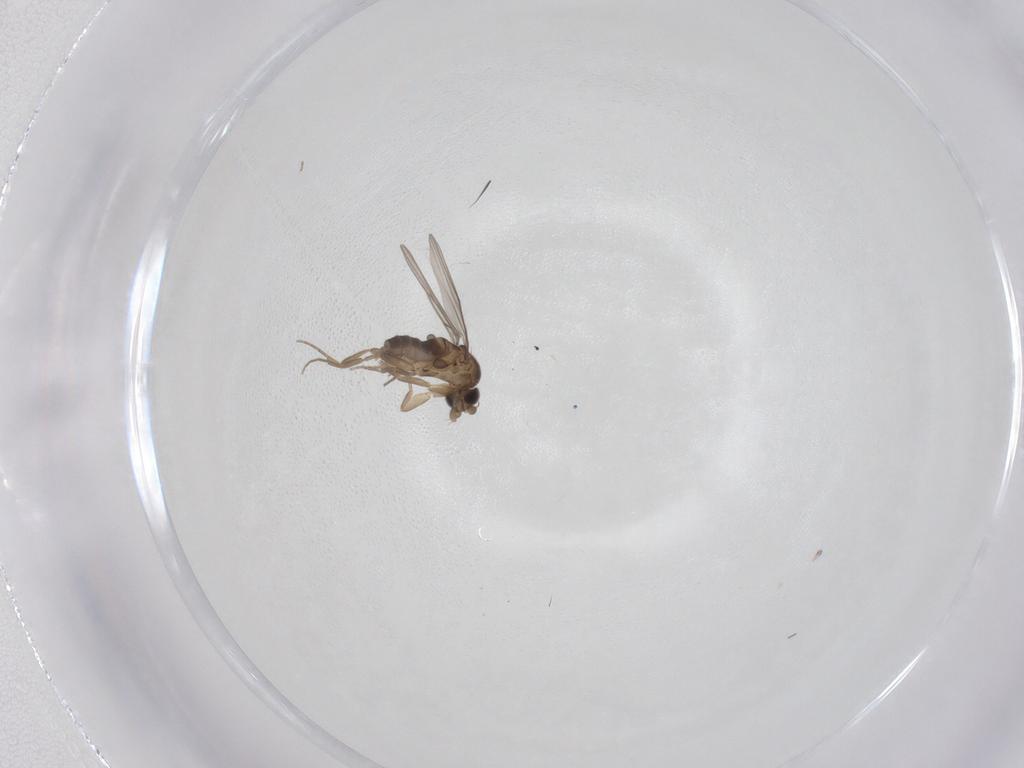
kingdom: Animalia
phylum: Arthropoda
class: Insecta
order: Diptera
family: Phoridae
